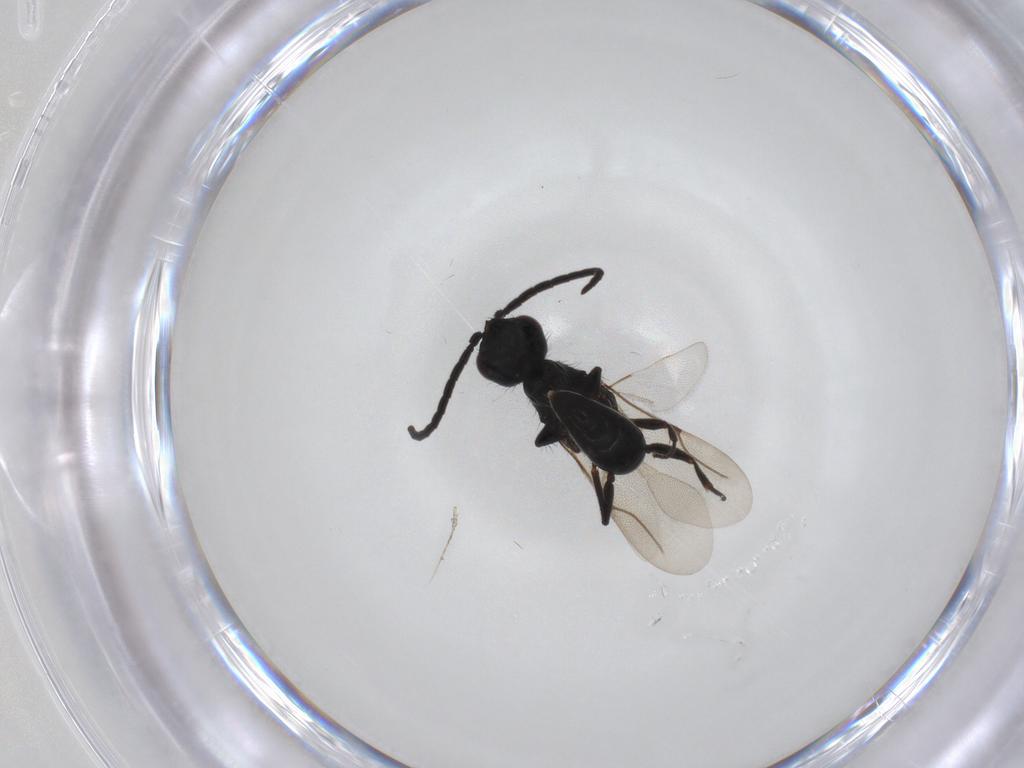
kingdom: Animalia
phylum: Arthropoda
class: Insecta
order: Hymenoptera
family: Bethylidae
